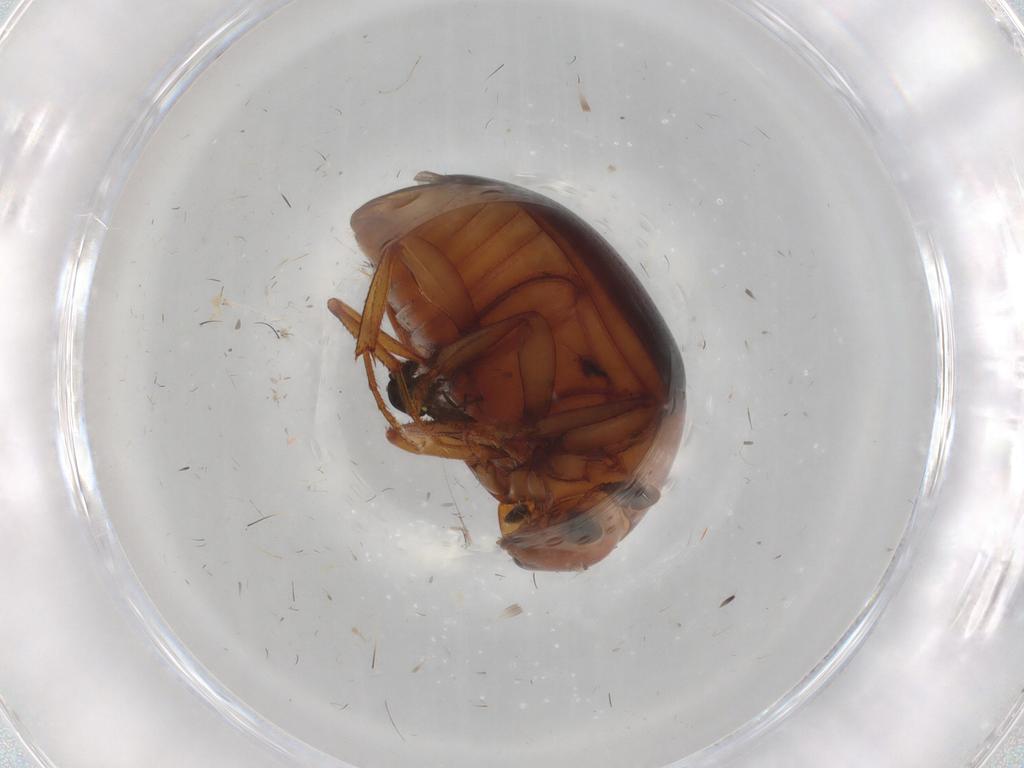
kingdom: Animalia
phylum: Arthropoda
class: Insecta
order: Coleoptera
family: Nitidulidae
